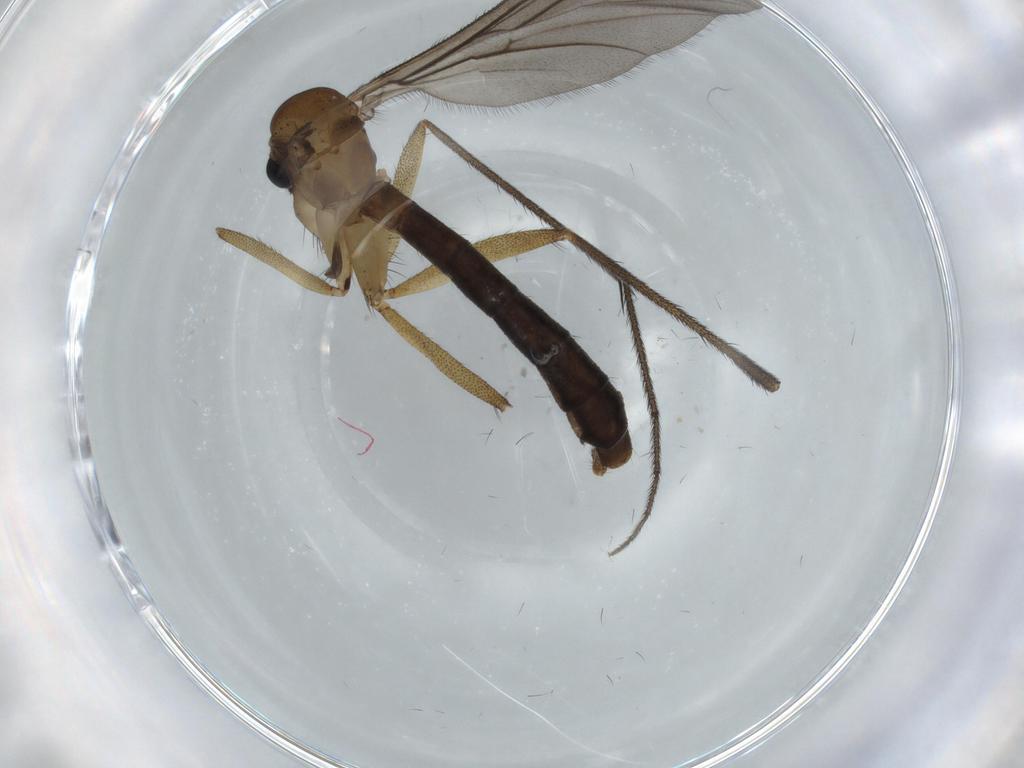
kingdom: Animalia
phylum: Arthropoda
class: Insecta
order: Diptera
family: Ditomyiidae
